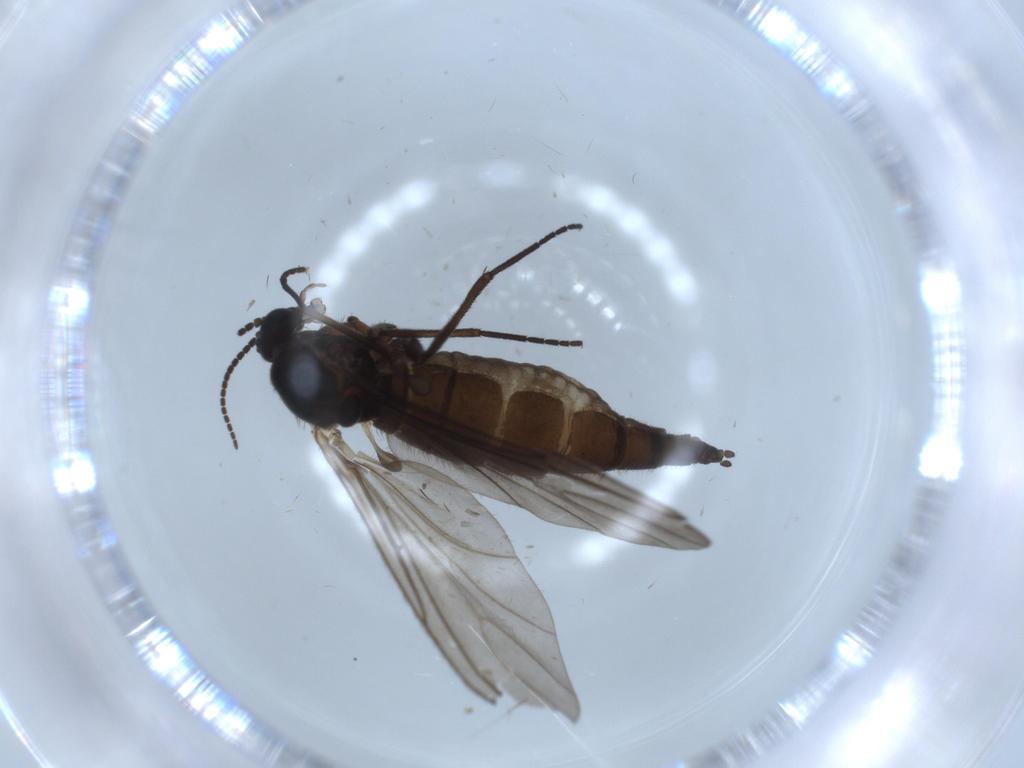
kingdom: Animalia
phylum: Arthropoda
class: Insecta
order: Diptera
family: Sciaridae
